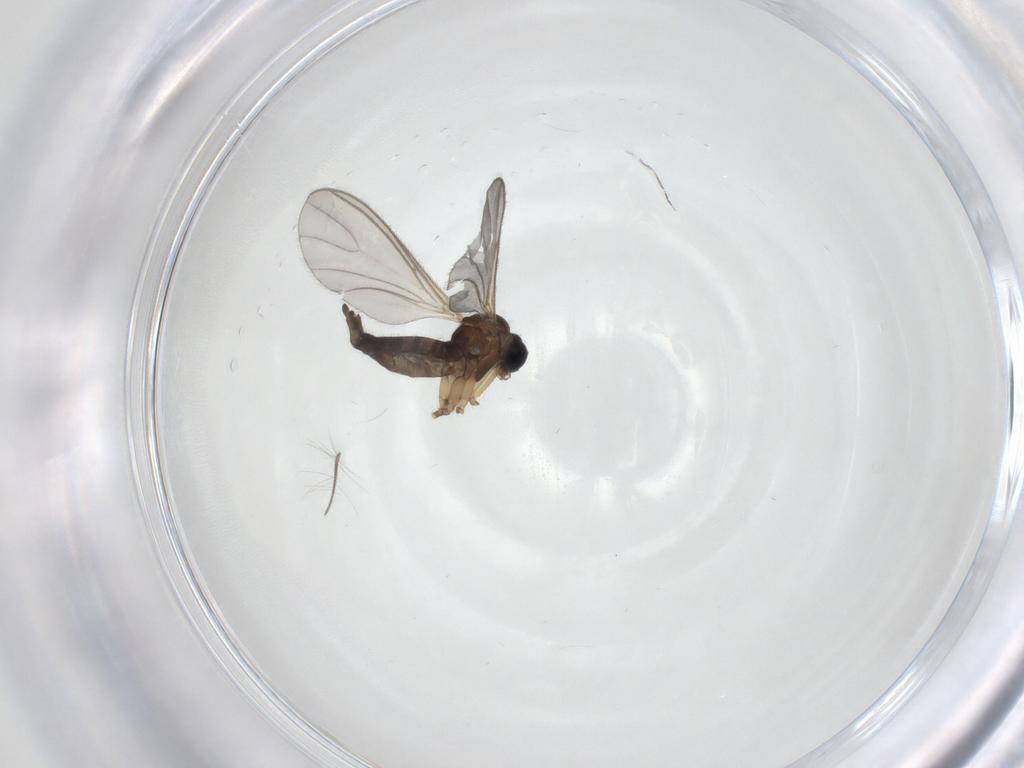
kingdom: Animalia
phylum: Arthropoda
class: Insecta
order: Diptera
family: Sciaridae
